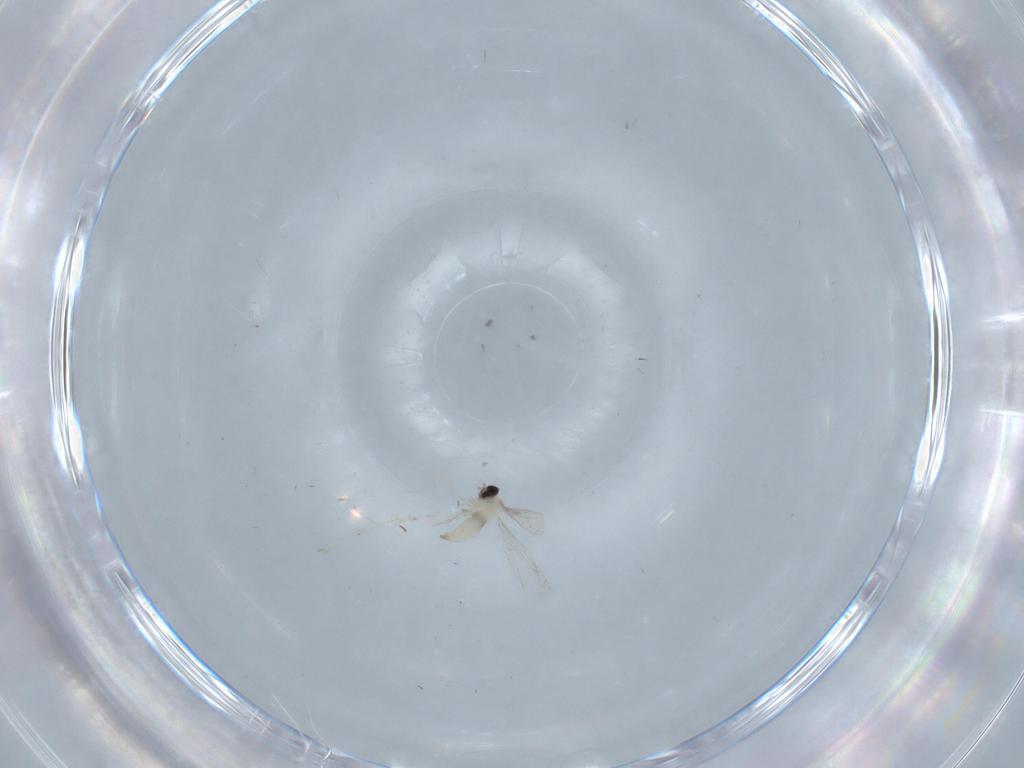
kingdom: Animalia
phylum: Arthropoda
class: Insecta
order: Diptera
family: Cecidomyiidae
